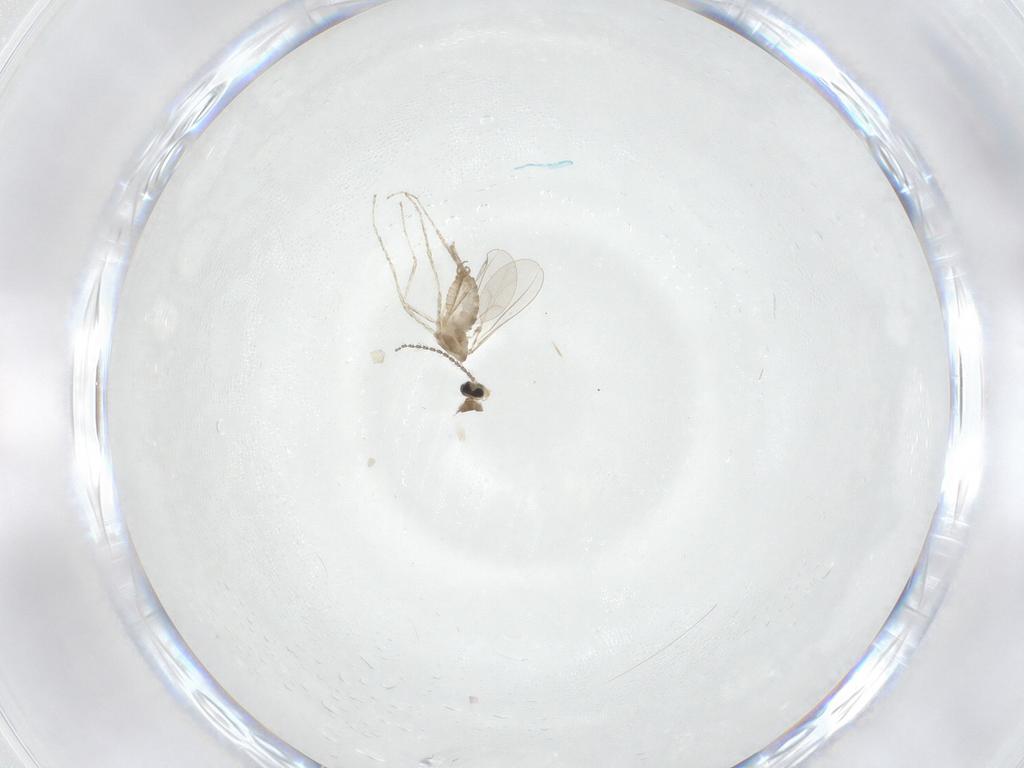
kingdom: Animalia
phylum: Arthropoda
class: Insecta
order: Diptera
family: Cecidomyiidae
